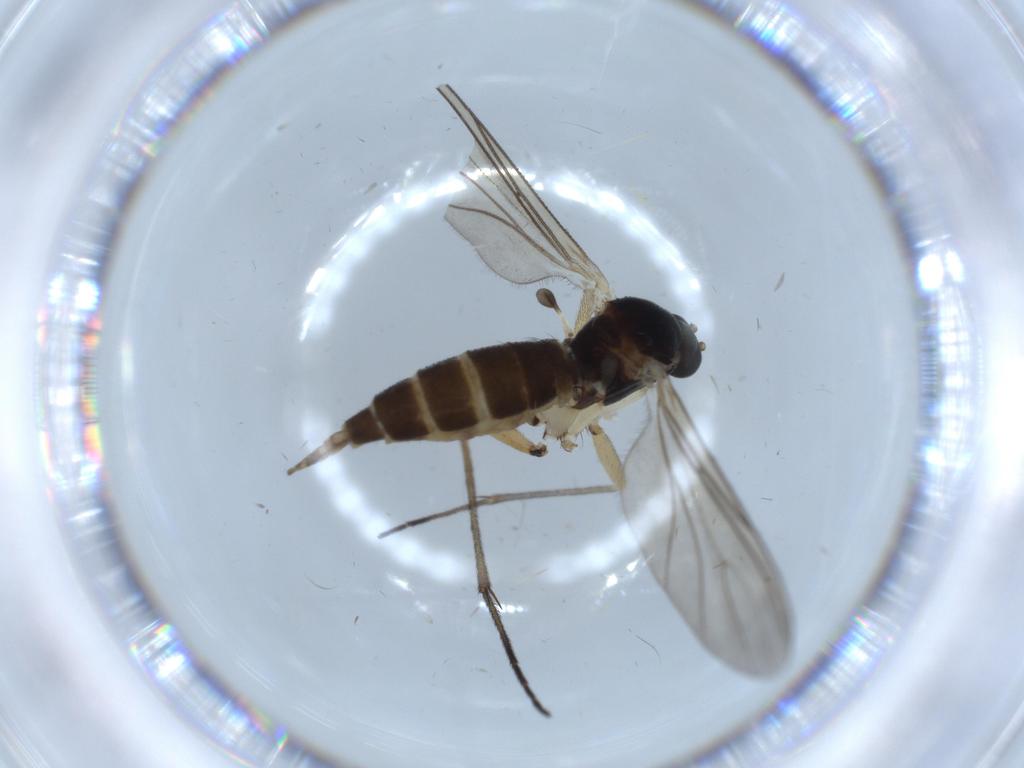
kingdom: Animalia
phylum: Arthropoda
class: Insecta
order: Diptera
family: Sciaridae
